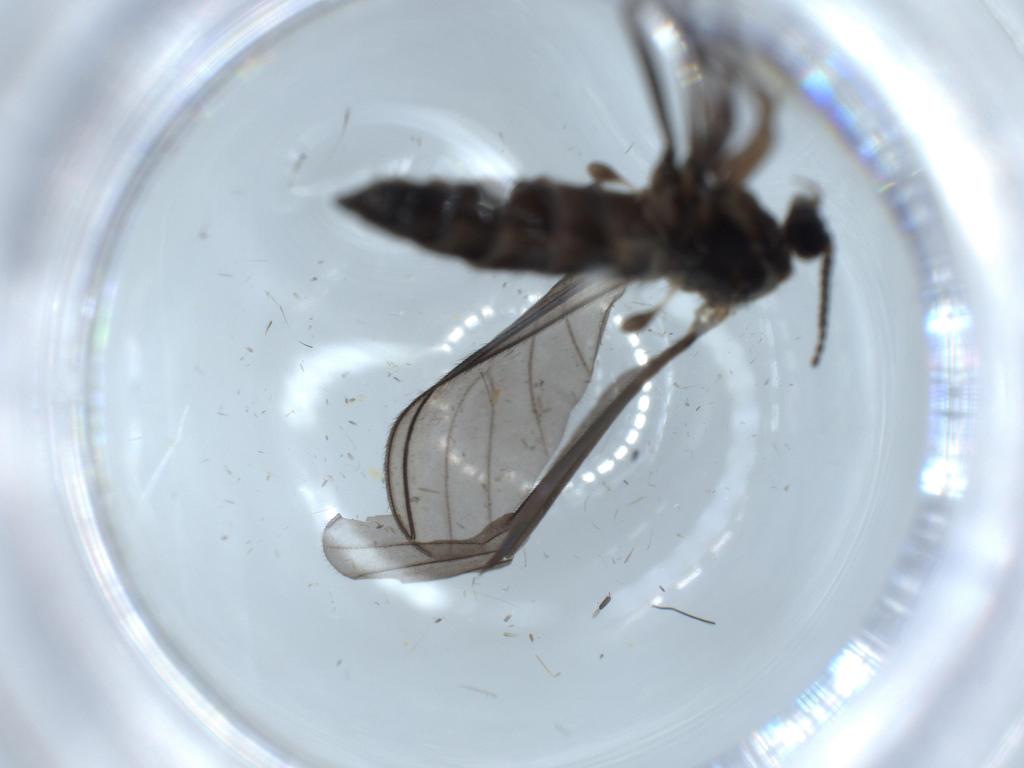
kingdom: Animalia
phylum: Arthropoda
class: Insecta
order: Diptera
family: Sciaridae
